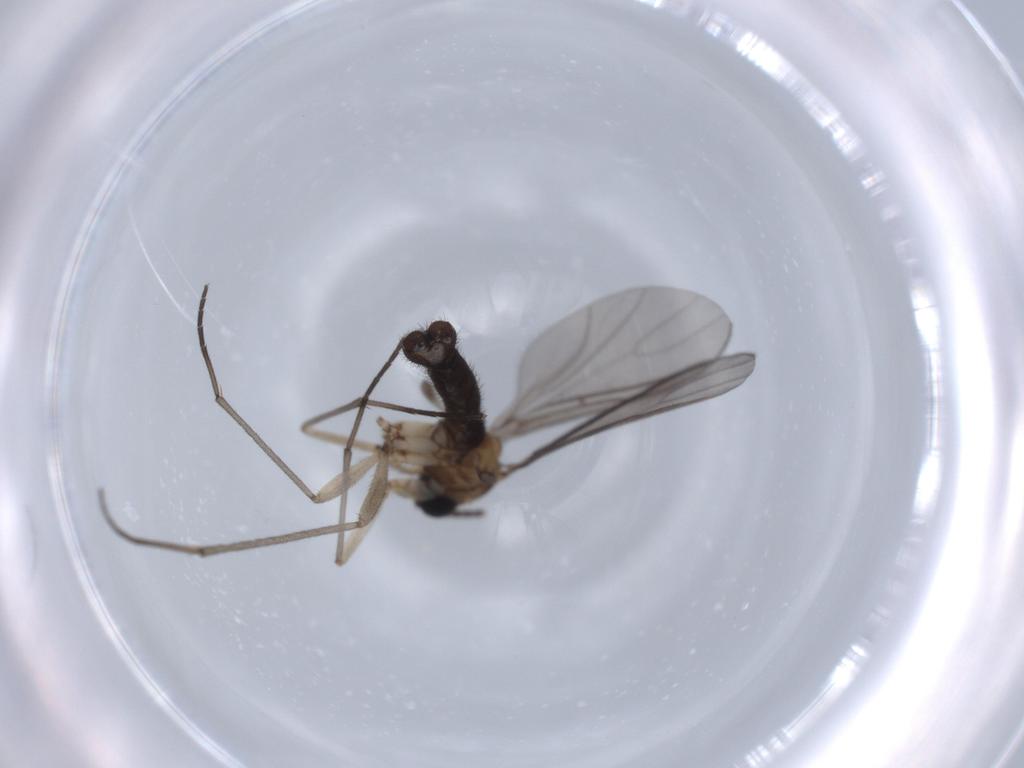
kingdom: Animalia
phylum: Arthropoda
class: Insecta
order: Diptera
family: Sciaridae
